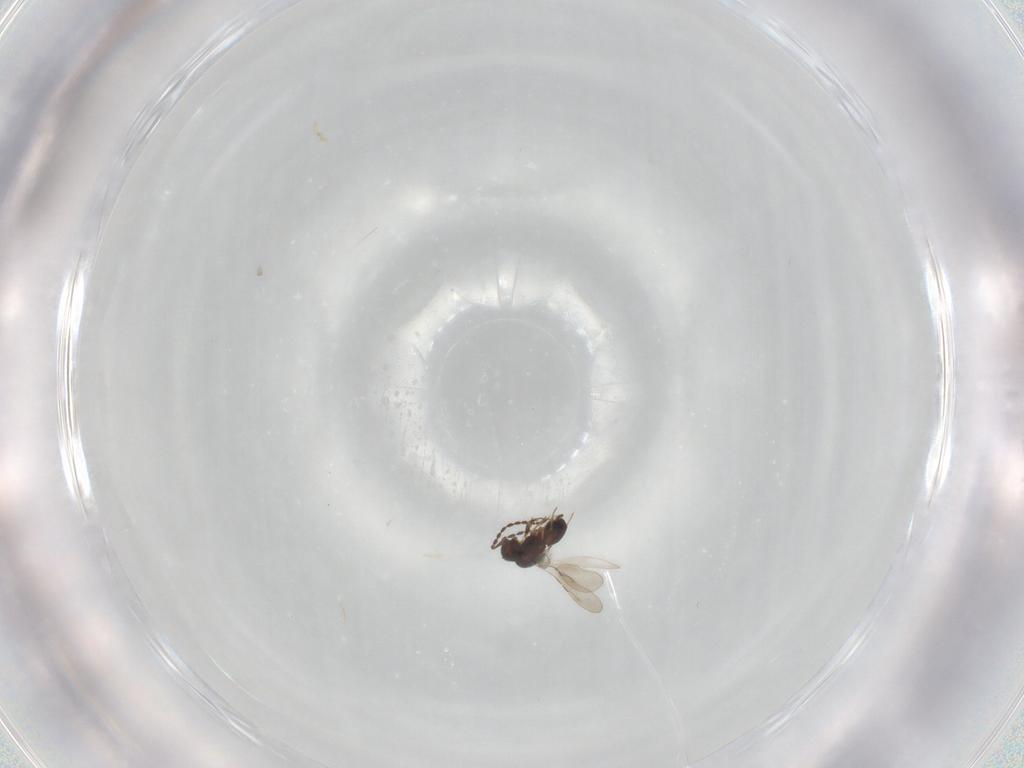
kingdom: Animalia
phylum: Arthropoda
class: Insecta
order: Hymenoptera
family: Ceraphronidae
